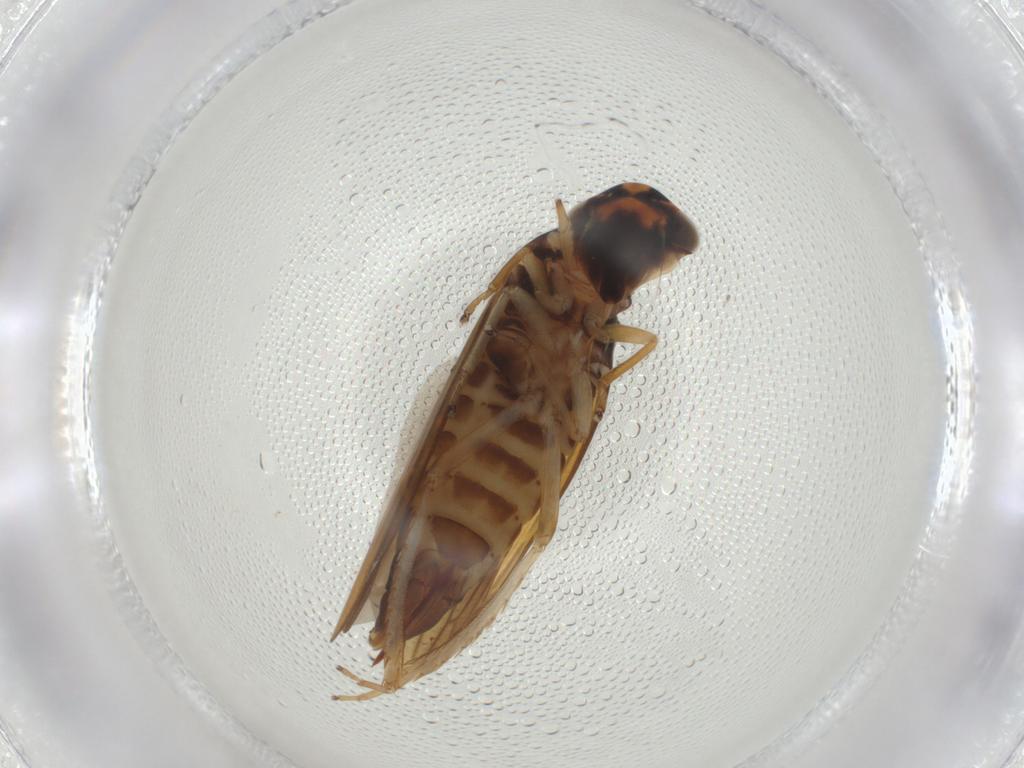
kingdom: Animalia
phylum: Arthropoda
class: Insecta
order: Hemiptera
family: Cicadellidae
